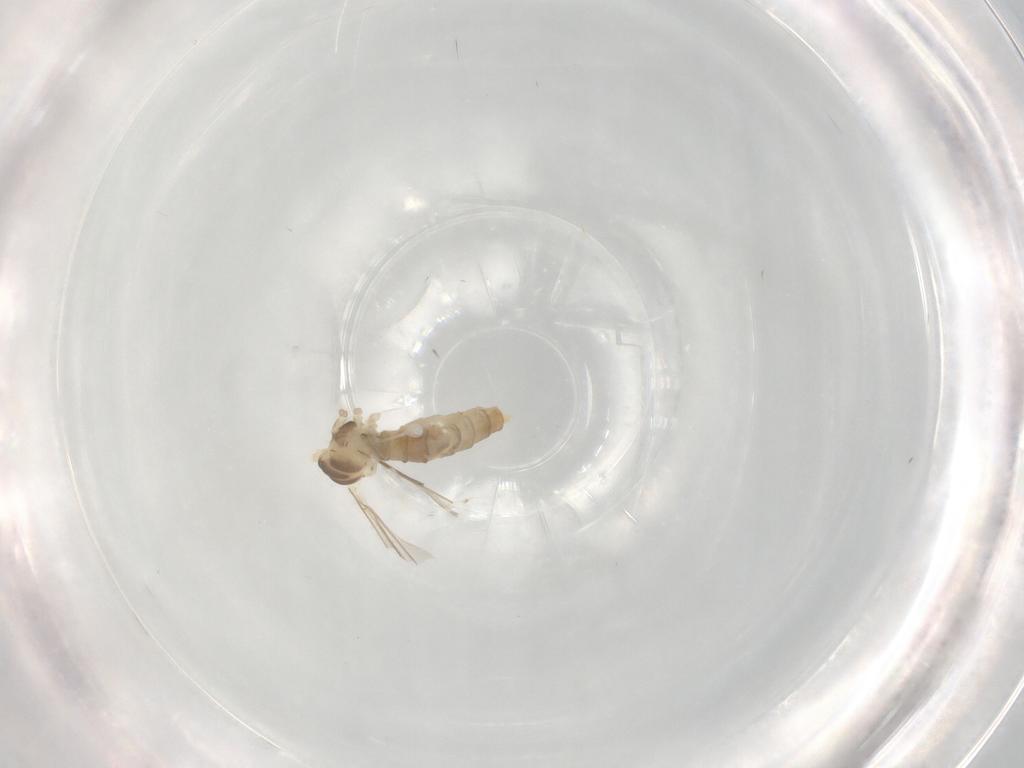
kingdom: Animalia
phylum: Arthropoda
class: Insecta
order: Diptera
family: Cecidomyiidae
